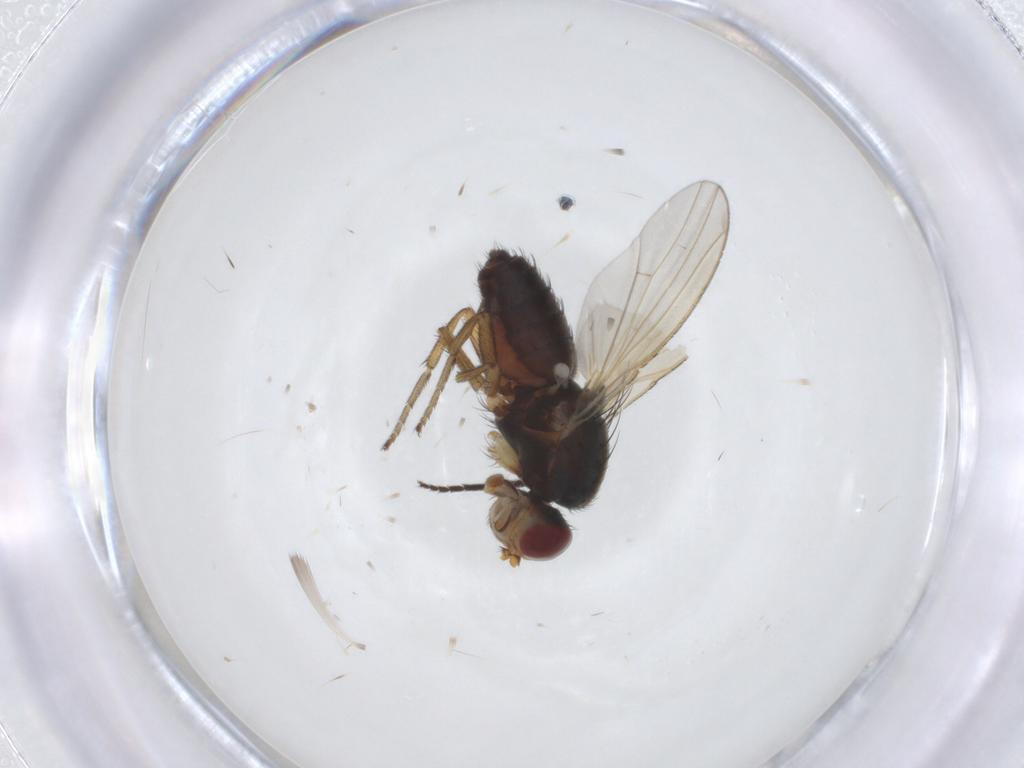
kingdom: Animalia
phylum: Arthropoda
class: Insecta
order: Diptera
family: Heleomyzidae
